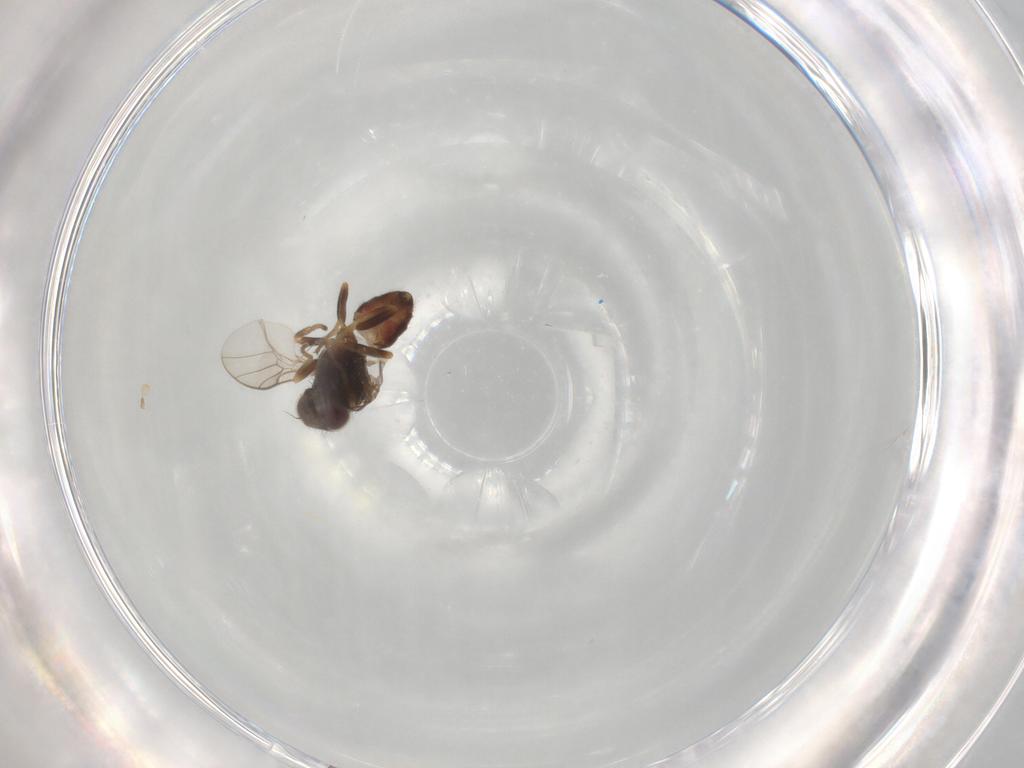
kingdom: Animalia
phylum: Arthropoda
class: Insecta
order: Diptera
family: Chloropidae
